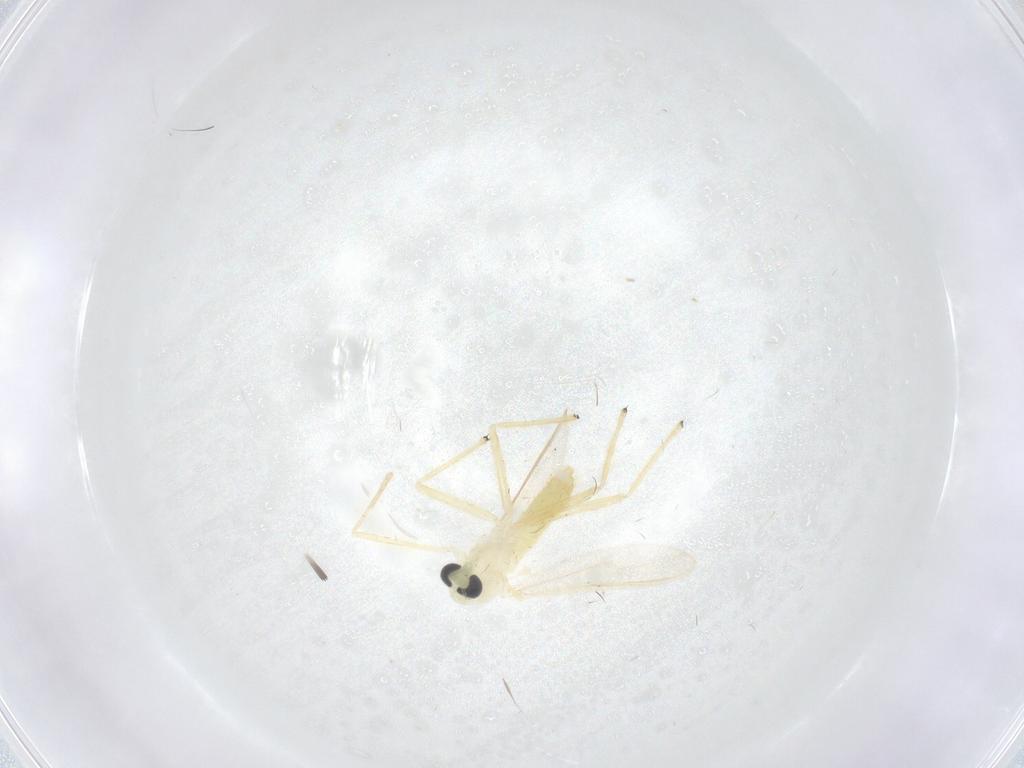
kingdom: Animalia
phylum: Arthropoda
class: Insecta
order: Diptera
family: Chironomidae
